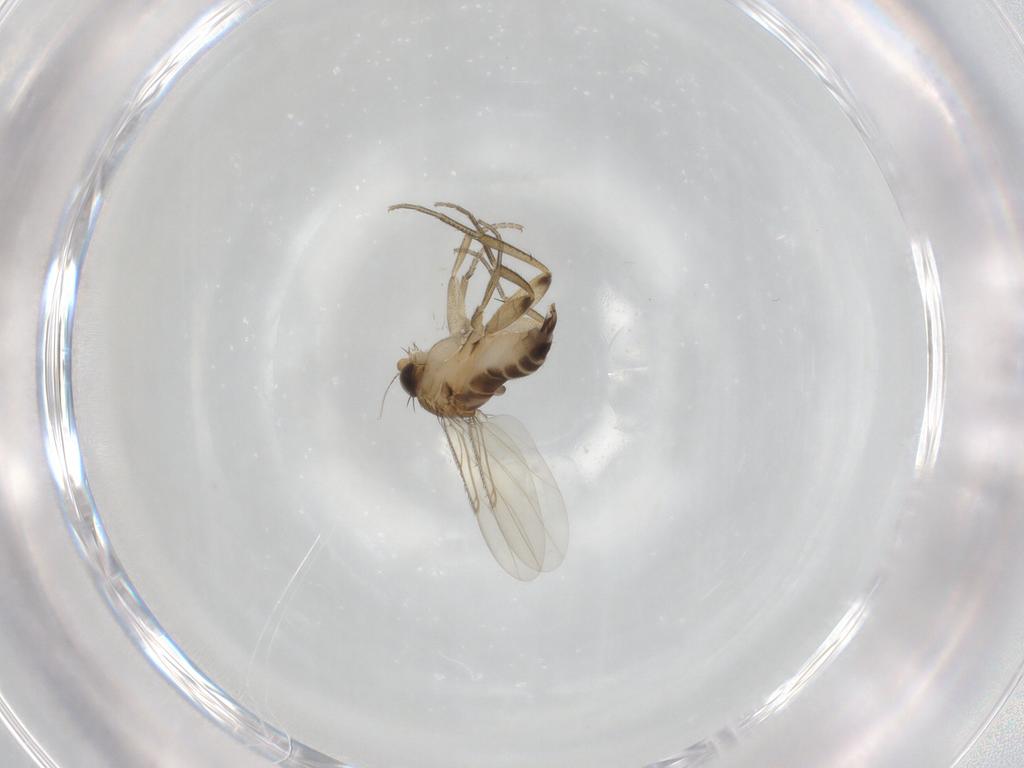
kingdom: Animalia
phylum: Arthropoda
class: Insecta
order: Diptera
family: Phoridae
